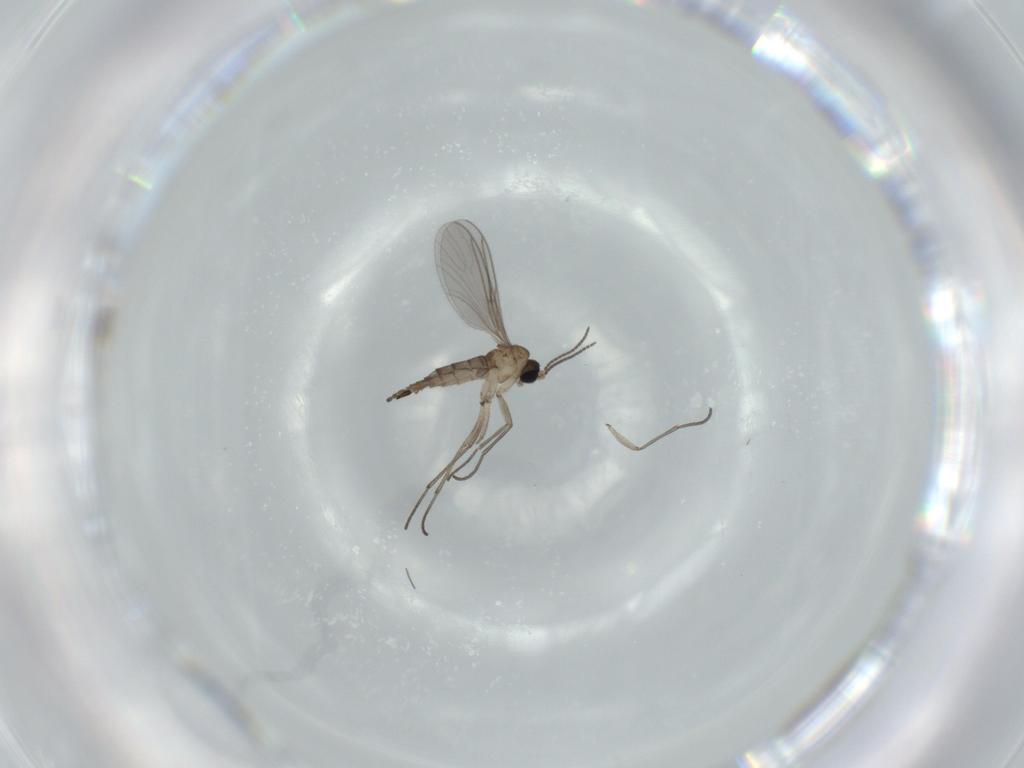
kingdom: Animalia
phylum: Arthropoda
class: Insecta
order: Diptera
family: Sciaridae
